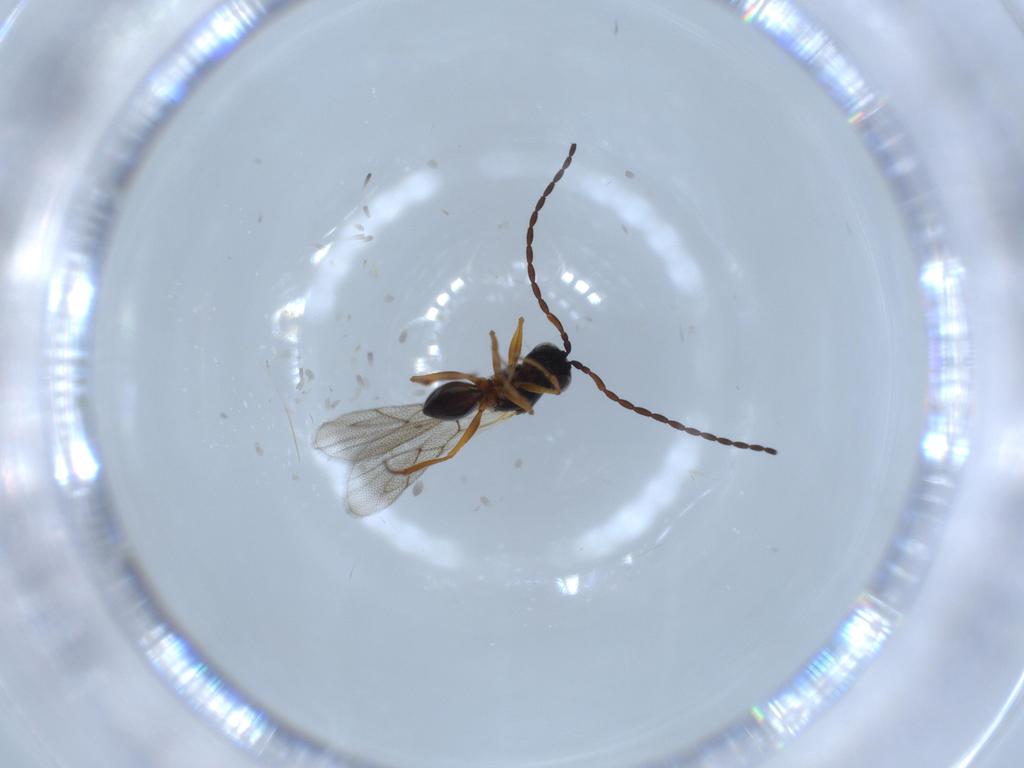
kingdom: Animalia
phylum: Arthropoda
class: Insecta
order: Hymenoptera
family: Figitidae
